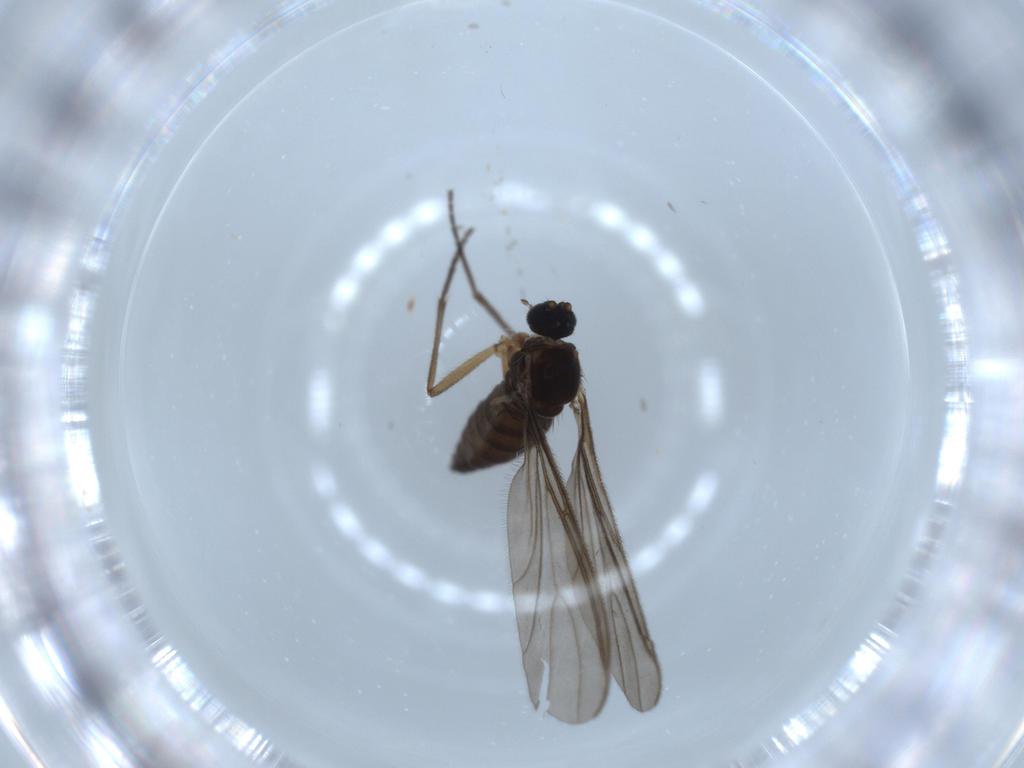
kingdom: Animalia
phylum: Arthropoda
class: Insecta
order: Diptera
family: Sciaridae
